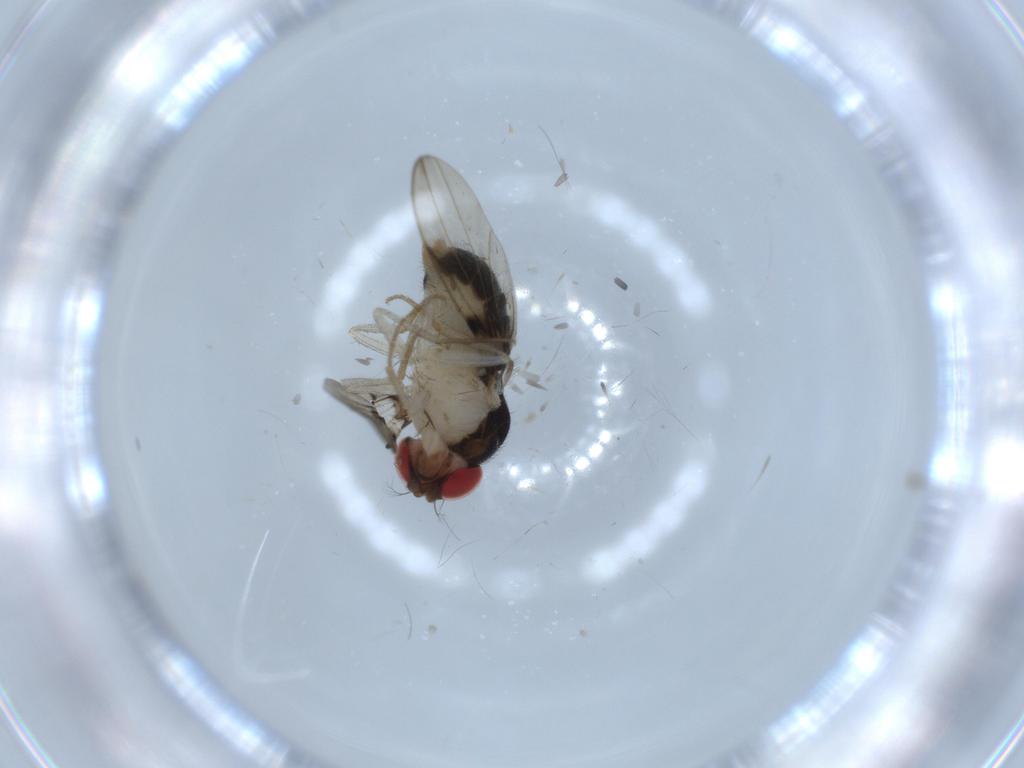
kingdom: Animalia
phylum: Arthropoda
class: Insecta
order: Diptera
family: Drosophilidae
